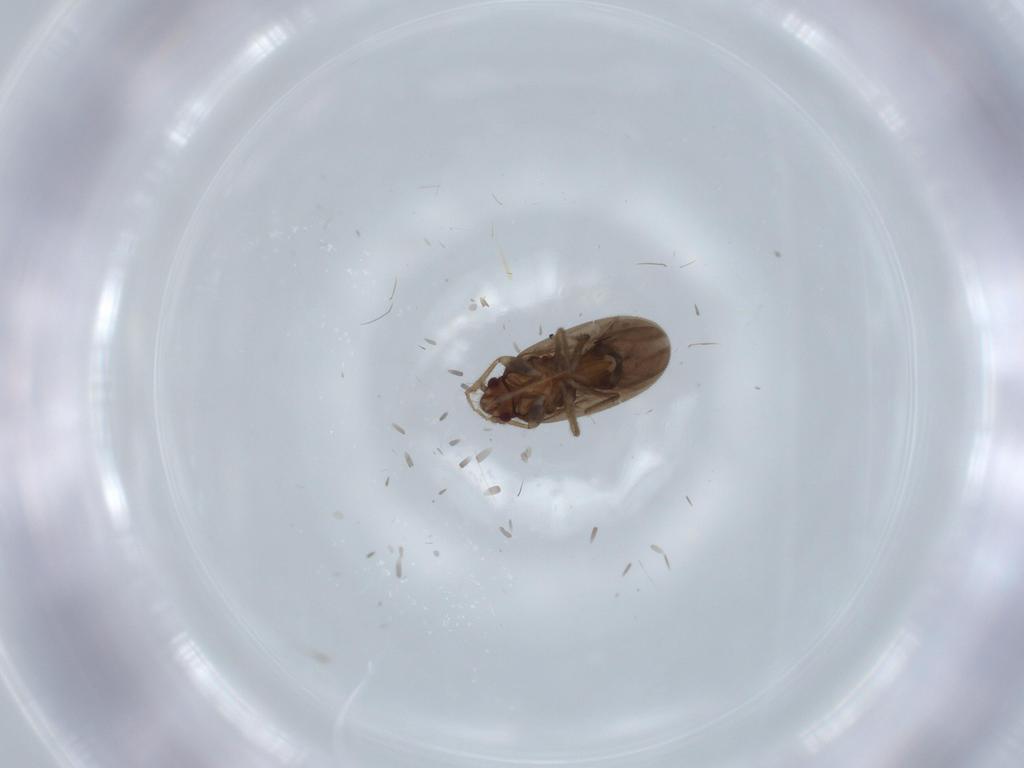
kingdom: Animalia
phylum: Arthropoda
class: Insecta
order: Hemiptera
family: Ceratocombidae
